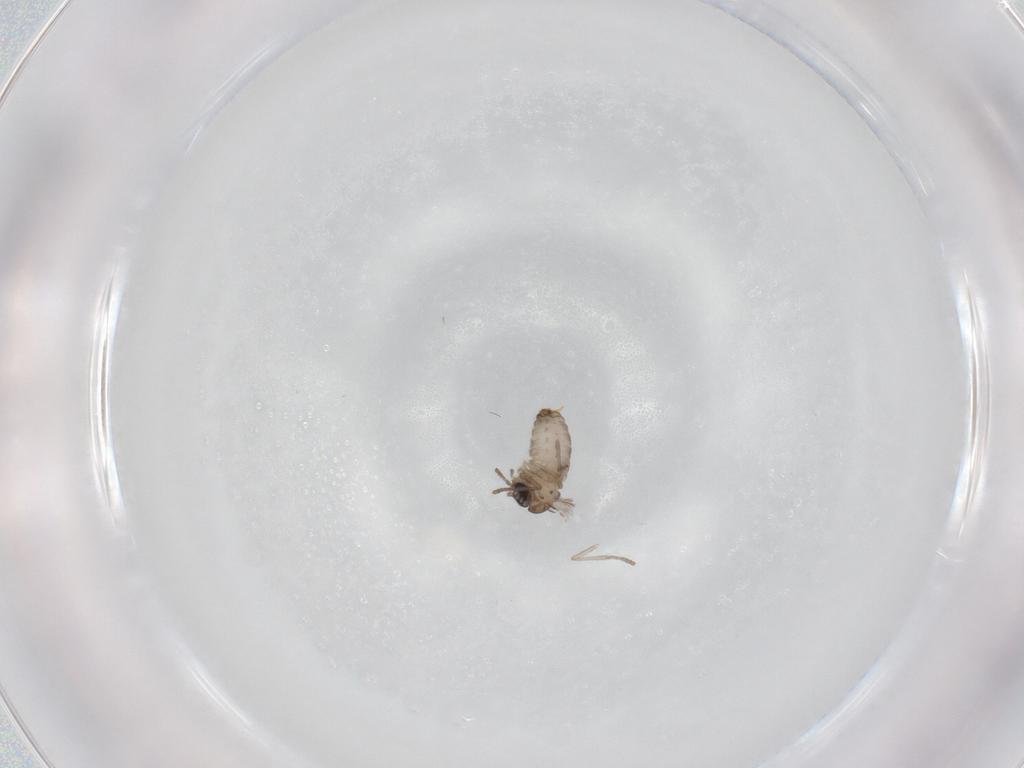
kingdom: Animalia
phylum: Arthropoda
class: Insecta
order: Diptera
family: Psychodidae
